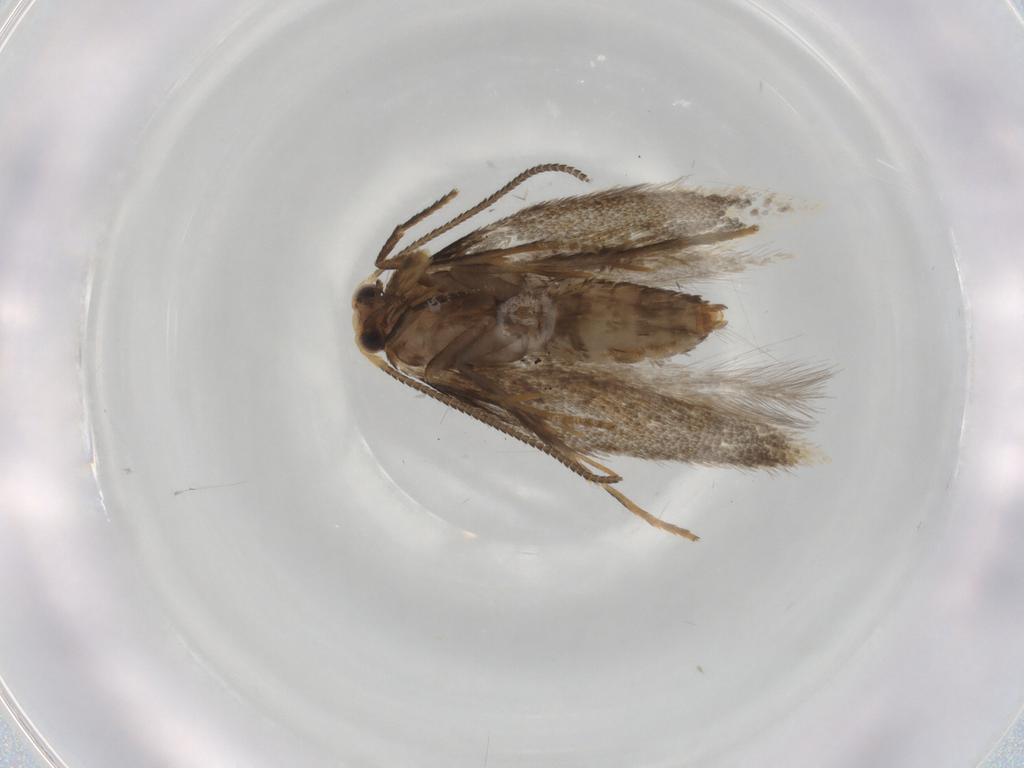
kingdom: Animalia
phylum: Arthropoda
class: Insecta
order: Lepidoptera
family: Nepticulidae
